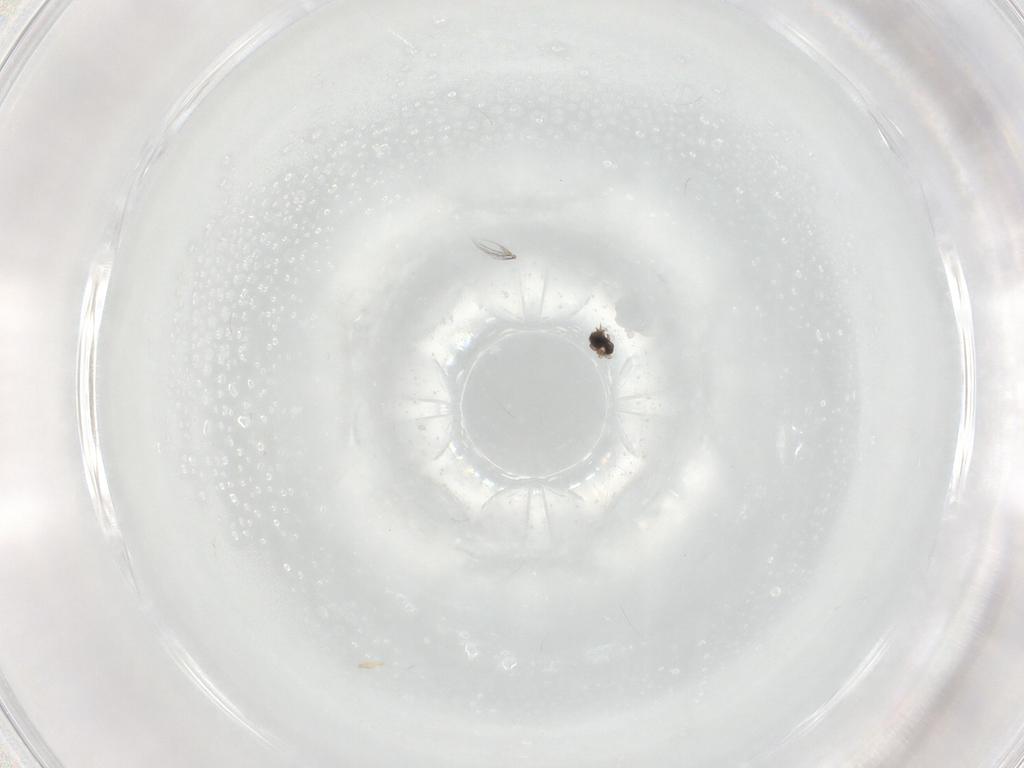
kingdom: Animalia
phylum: Arthropoda
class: Insecta
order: Diptera
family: Cecidomyiidae
